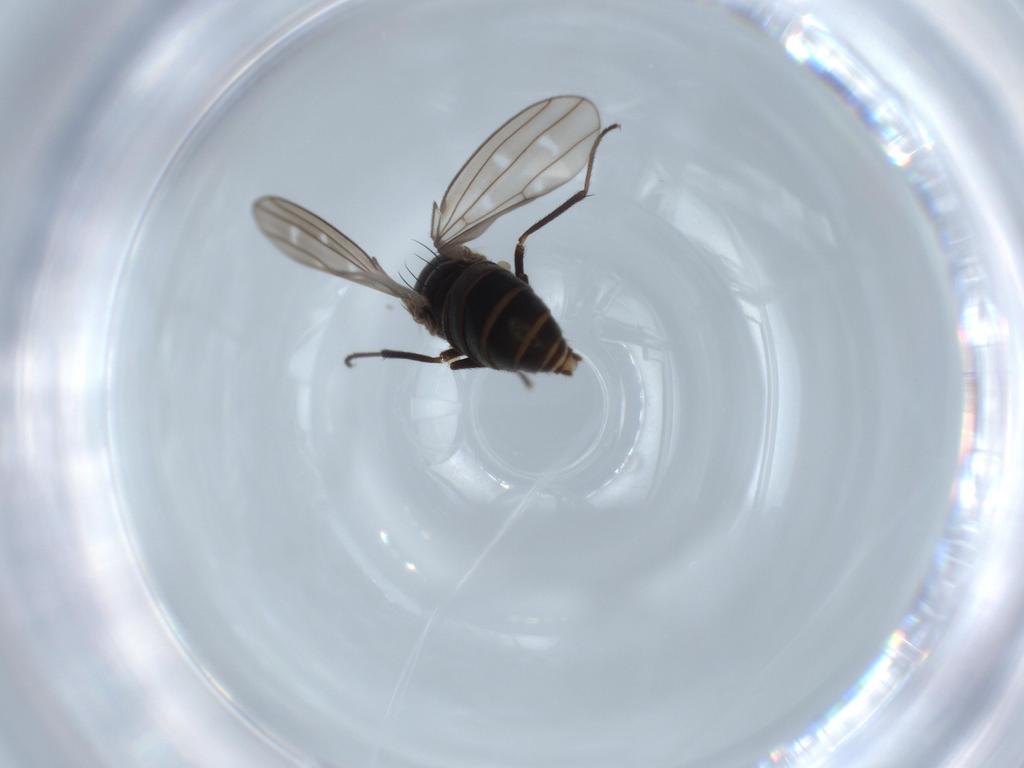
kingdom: Animalia
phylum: Arthropoda
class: Insecta
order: Diptera
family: Ephydridae
